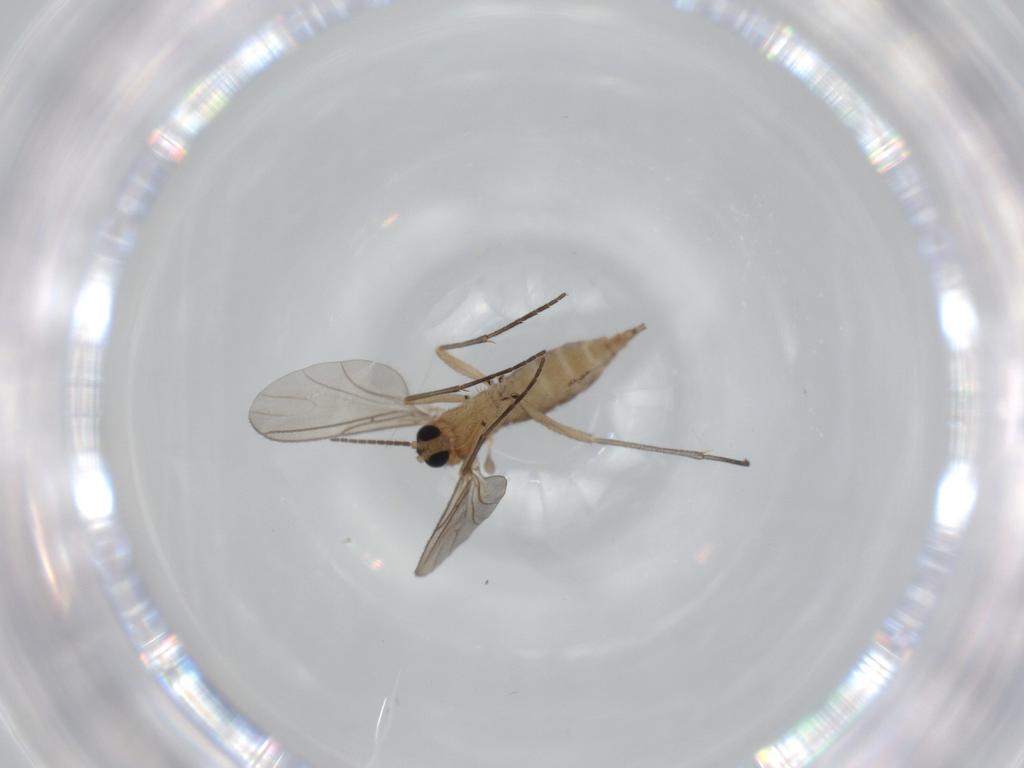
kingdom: Animalia
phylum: Arthropoda
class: Insecta
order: Diptera
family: Sciaridae
